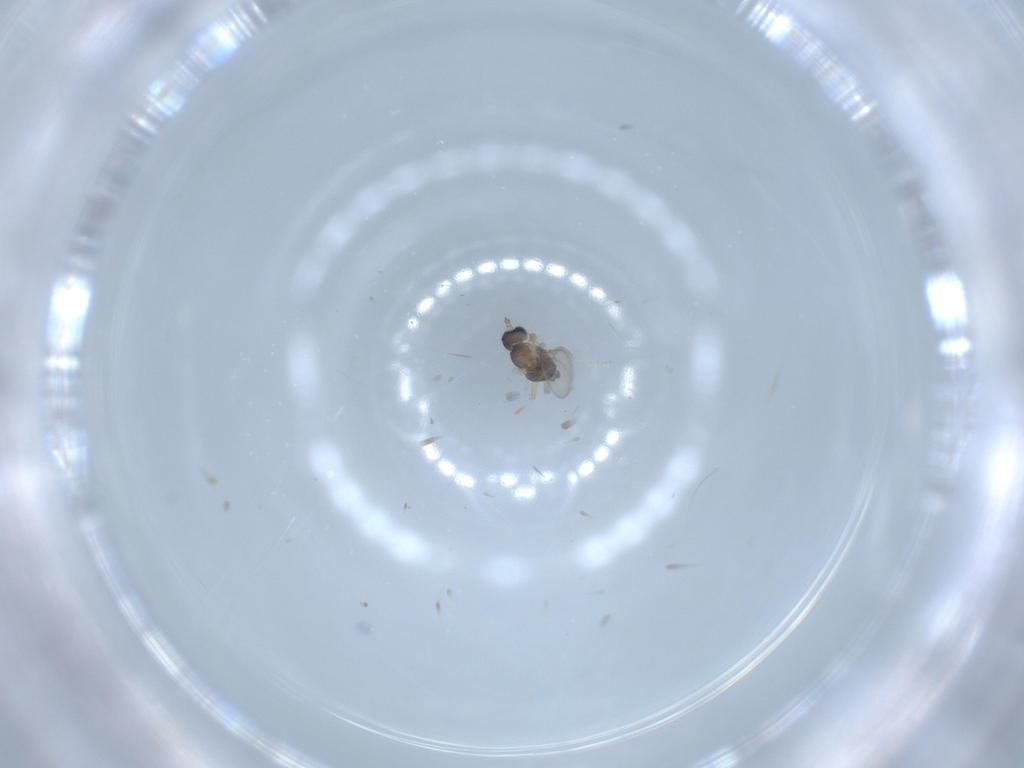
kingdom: Animalia
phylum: Arthropoda
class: Insecta
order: Diptera
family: Cecidomyiidae
